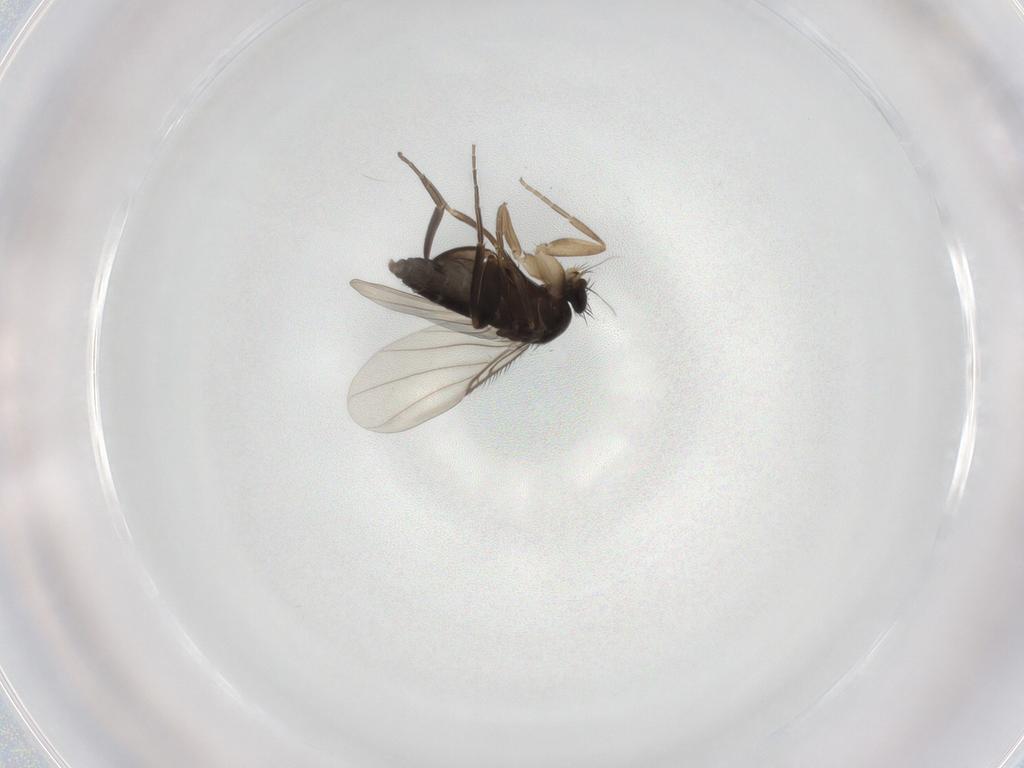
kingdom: Animalia
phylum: Arthropoda
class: Insecta
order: Diptera
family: Phoridae
